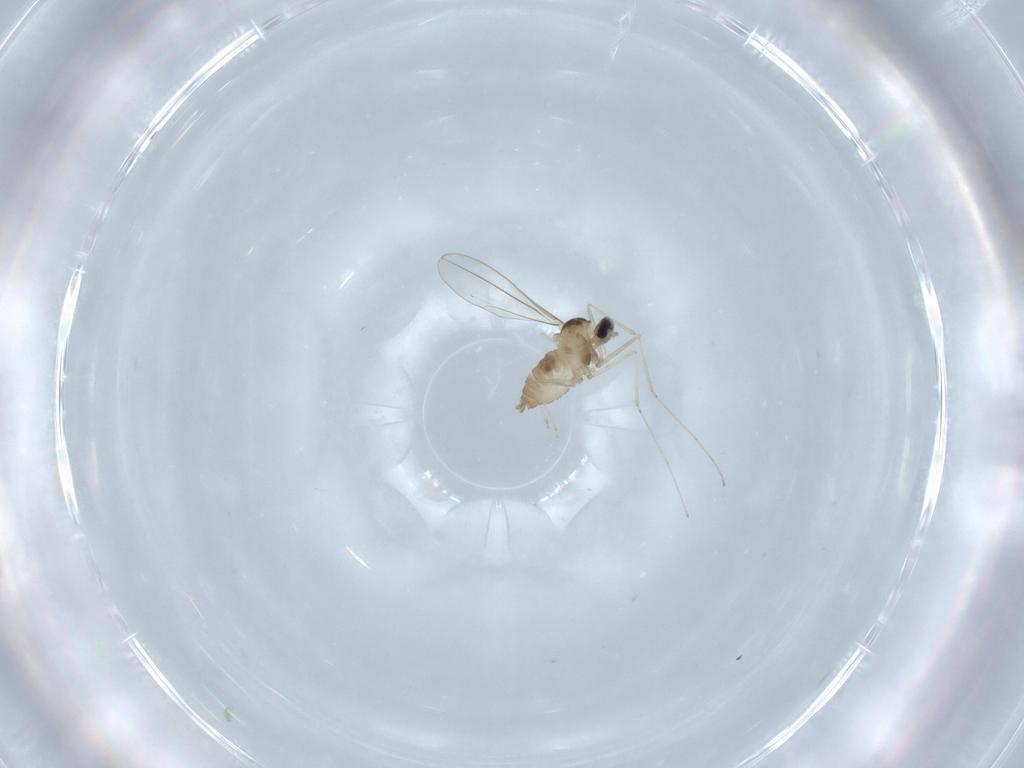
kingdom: Animalia
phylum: Arthropoda
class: Insecta
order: Diptera
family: Cecidomyiidae
